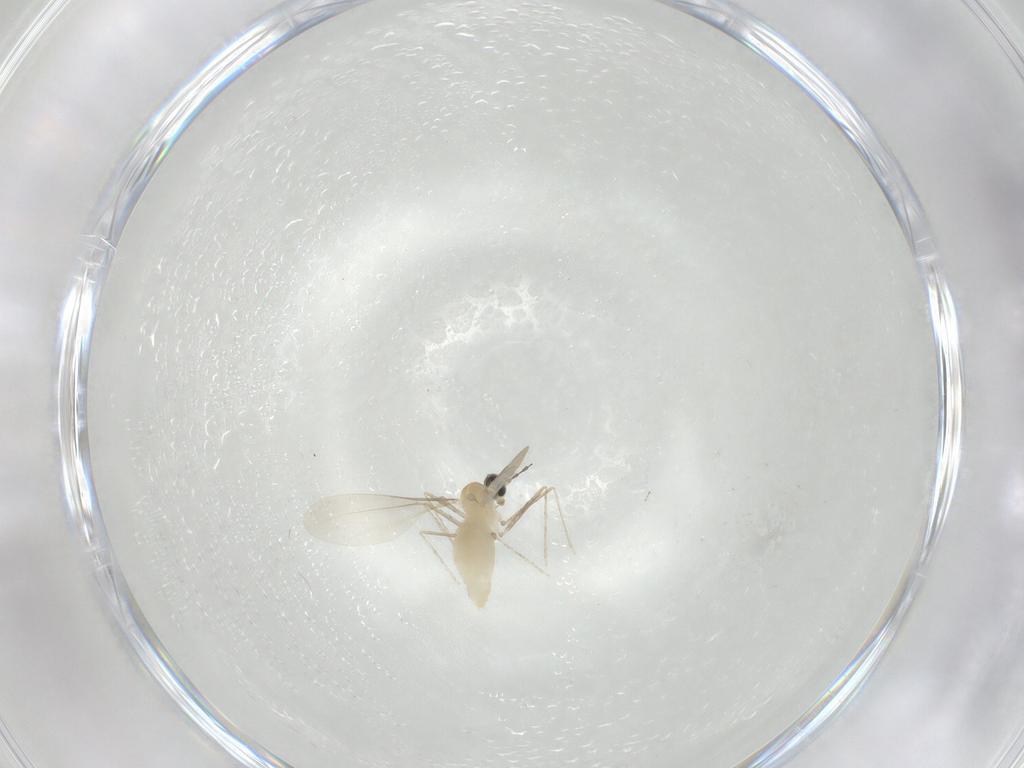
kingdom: Animalia
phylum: Arthropoda
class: Insecta
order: Diptera
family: Cecidomyiidae
